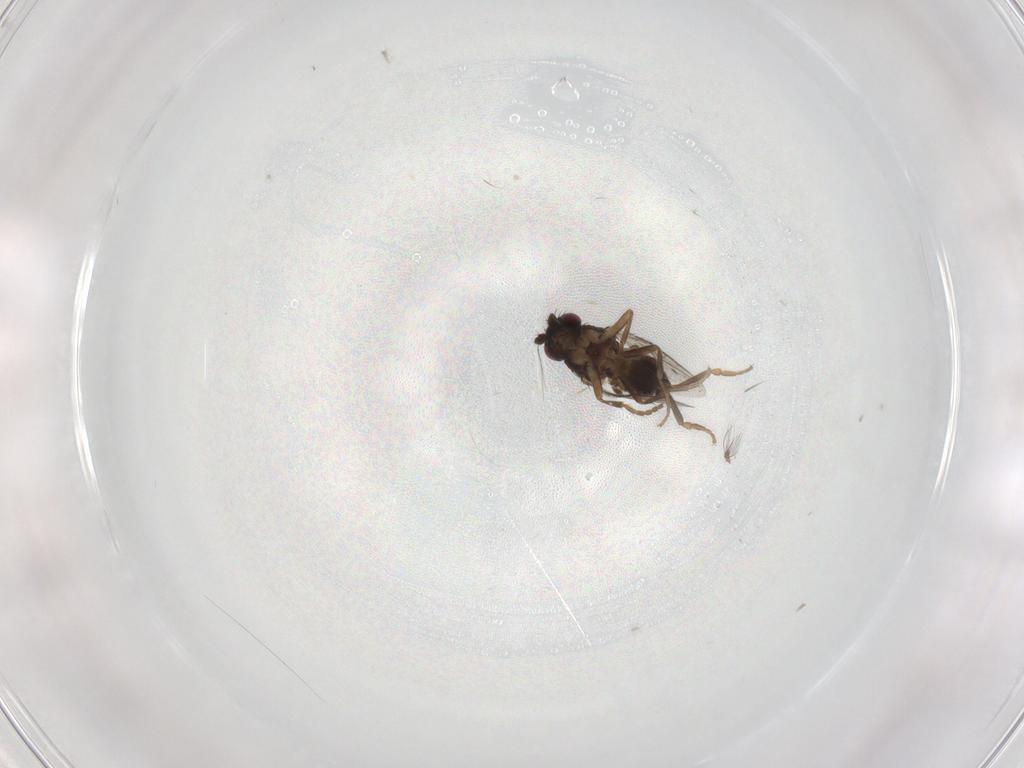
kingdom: Animalia
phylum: Arthropoda
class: Insecta
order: Diptera
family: Sphaeroceridae
